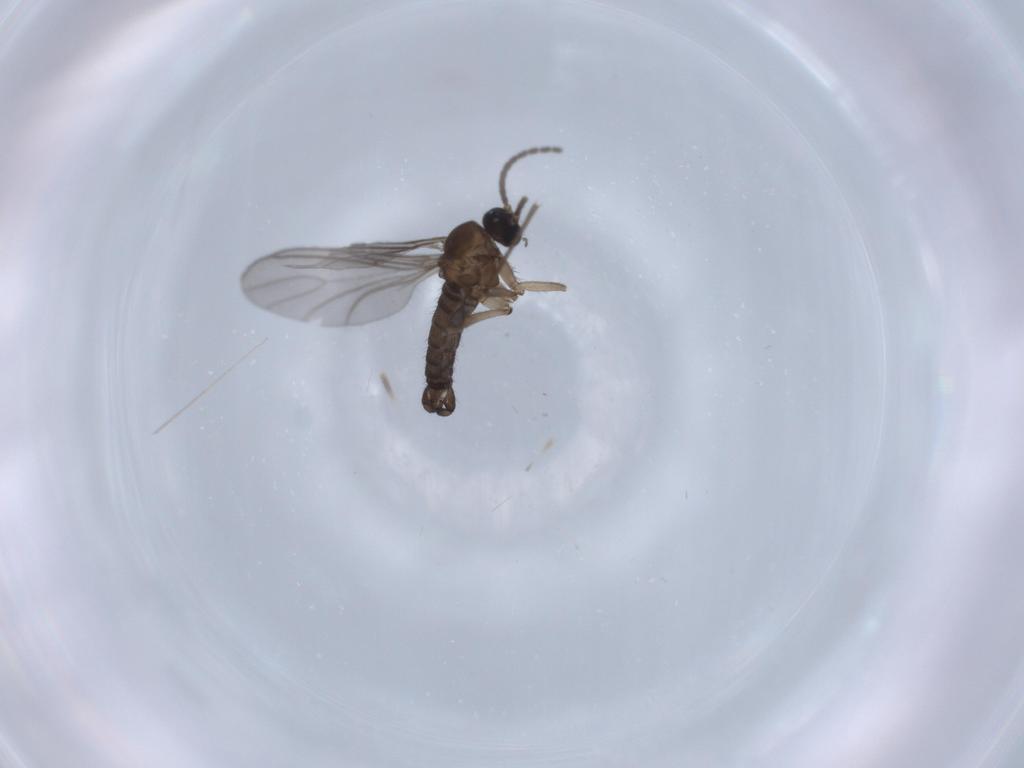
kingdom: Animalia
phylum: Arthropoda
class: Insecta
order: Diptera
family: Sciaridae
